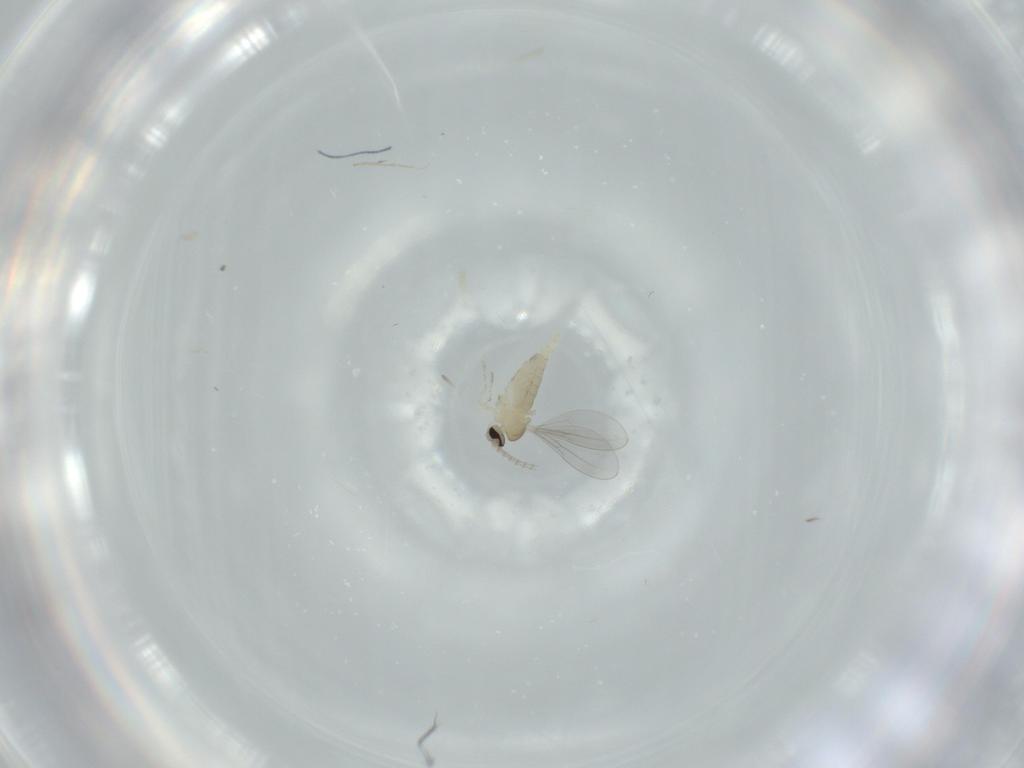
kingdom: Animalia
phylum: Arthropoda
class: Insecta
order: Diptera
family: Cecidomyiidae
